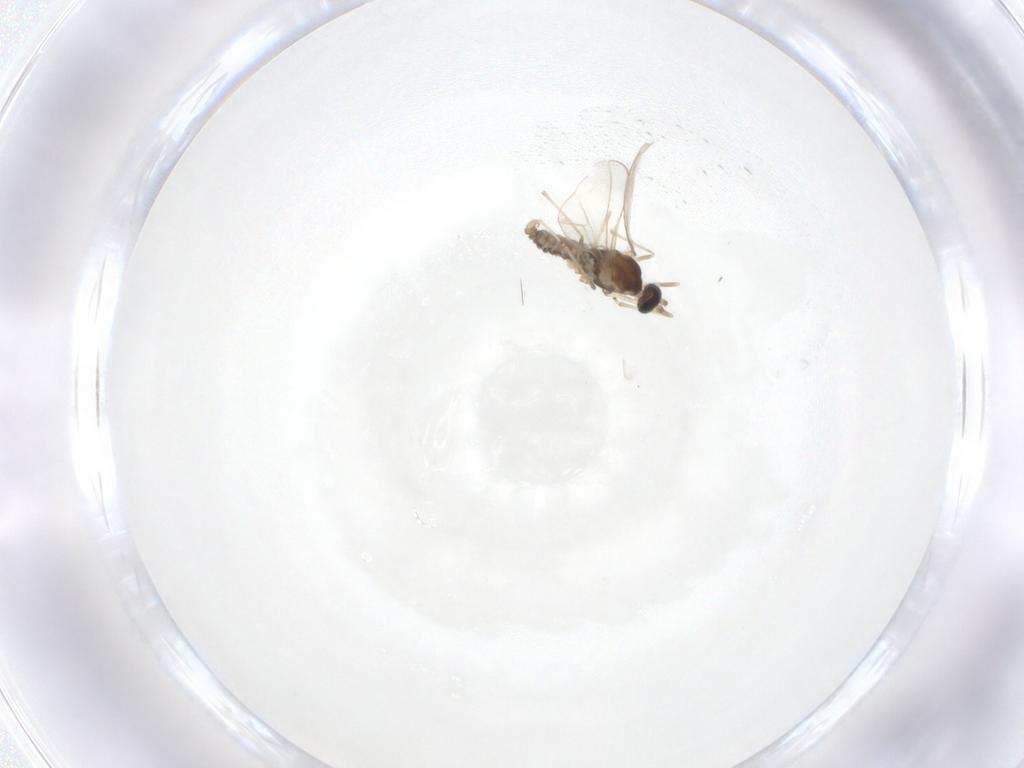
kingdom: Animalia
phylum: Arthropoda
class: Insecta
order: Diptera
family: Cecidomyiidae
